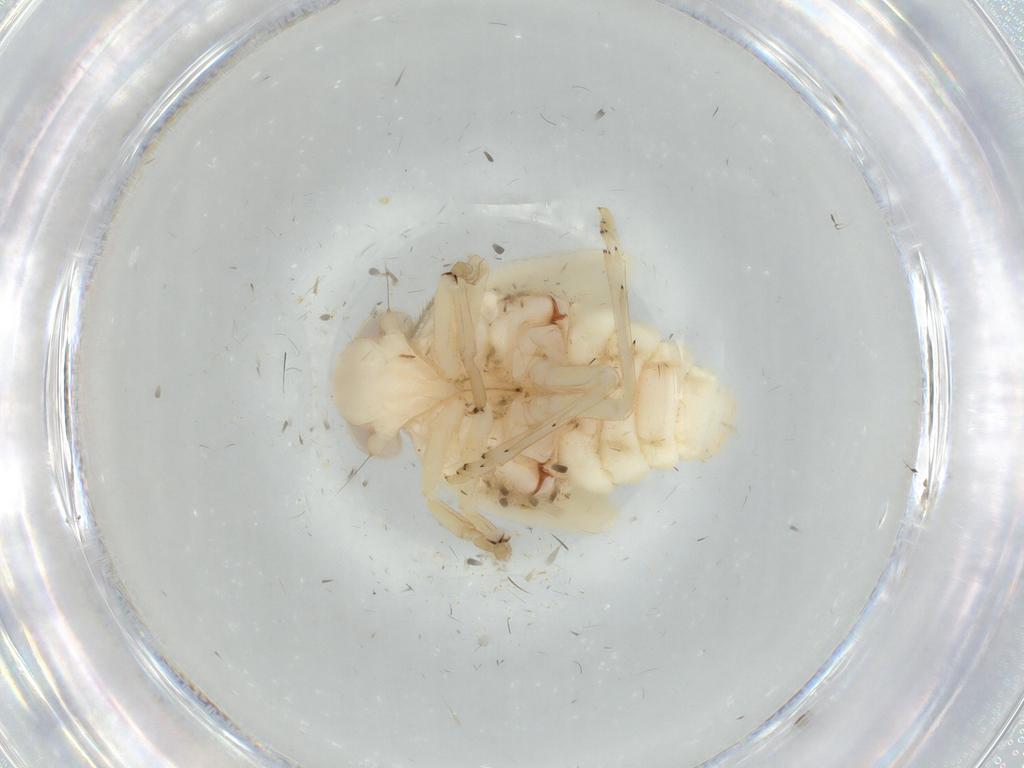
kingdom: Animalia
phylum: Arthropoda
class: Insecta
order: Hemiptera
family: Nogodinidae
